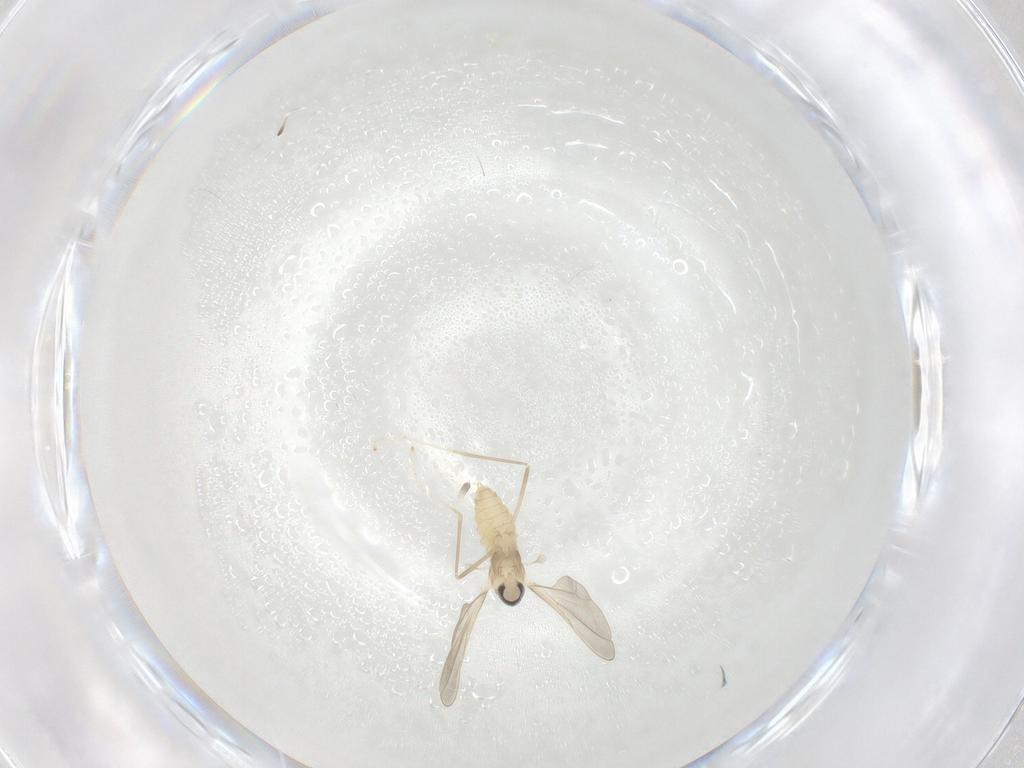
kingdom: Animalia
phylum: Arthropoda
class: Insecta
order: Diptera
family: Cecidomyiidae
